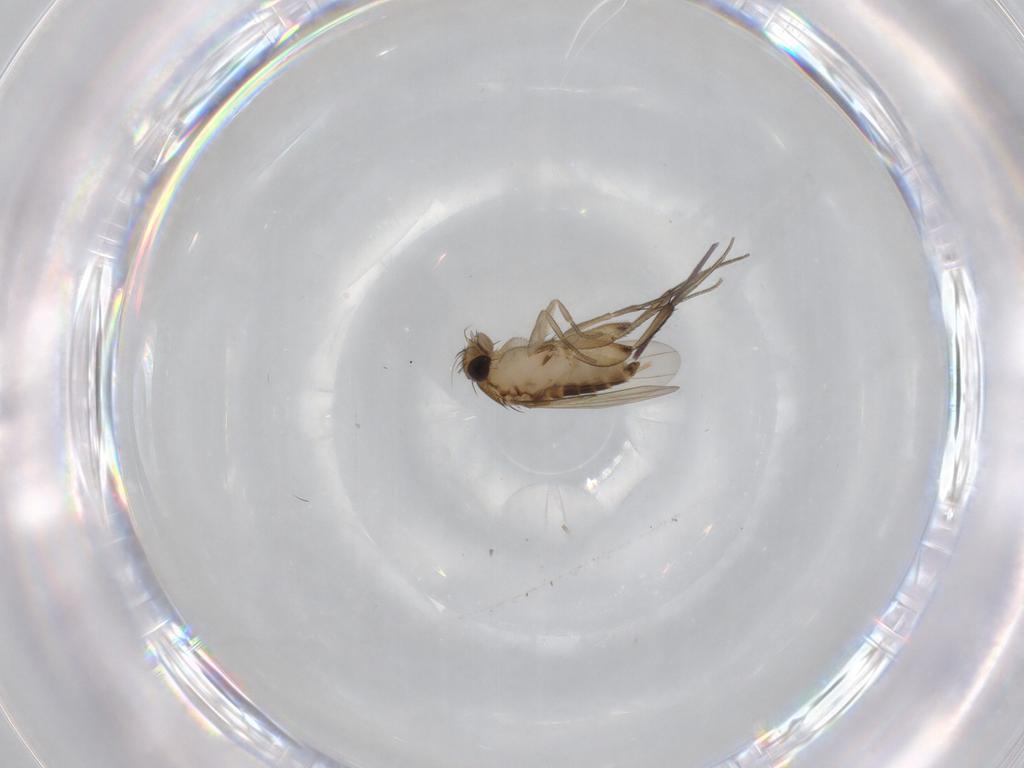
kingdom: Animalia
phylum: Arthropoda
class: Insecta
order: Diptera
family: Phoridae
